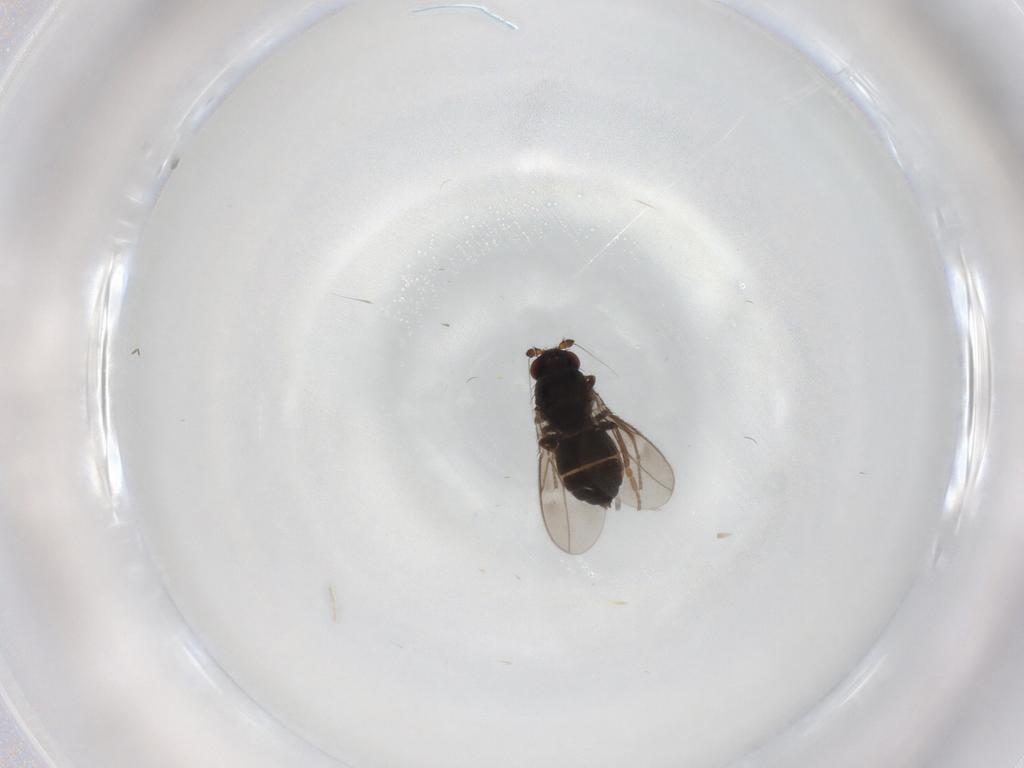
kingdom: Animalia
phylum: Arthropoda
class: Insecta
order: Diptera
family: Sphaeroceridae
